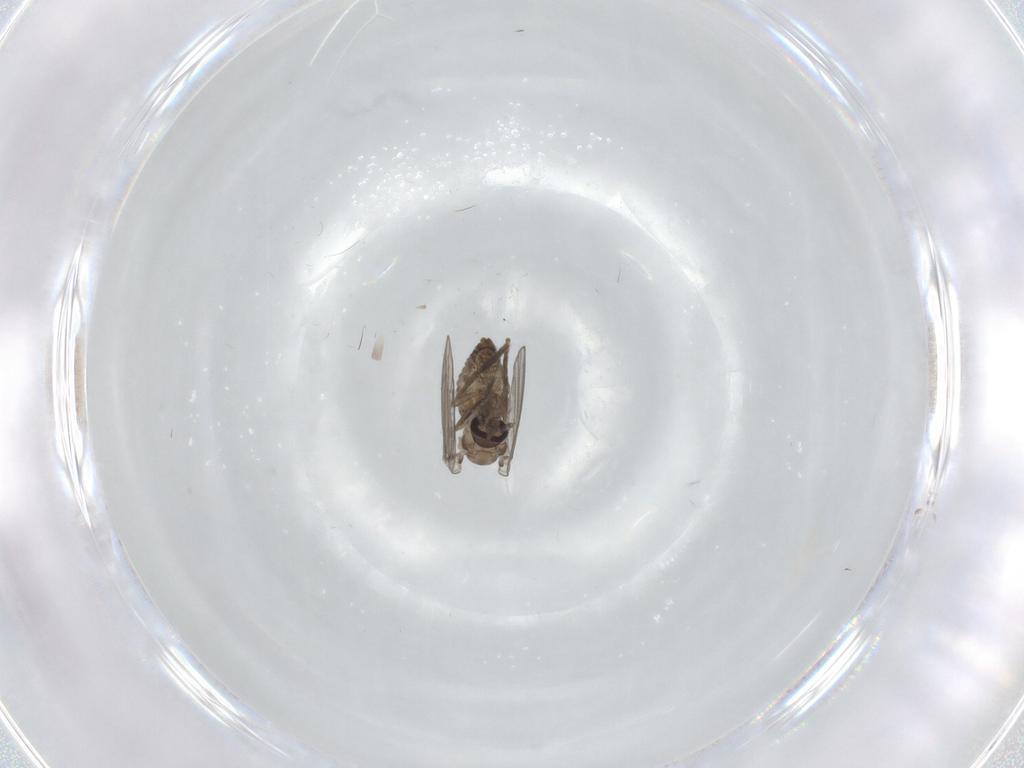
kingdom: Animalia
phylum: Arthropoda
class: Insecta
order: Diptera
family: Psychodidae
